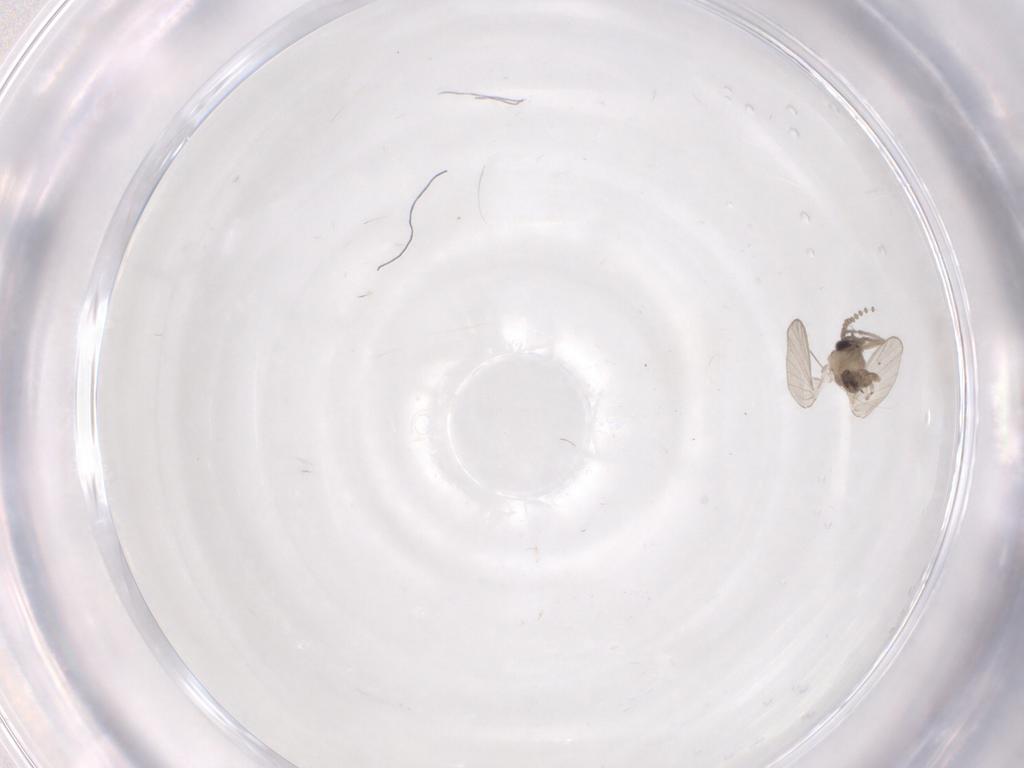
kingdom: Animalia
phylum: Arthropoda
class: Insecta
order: Diptera
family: Psychodidae
